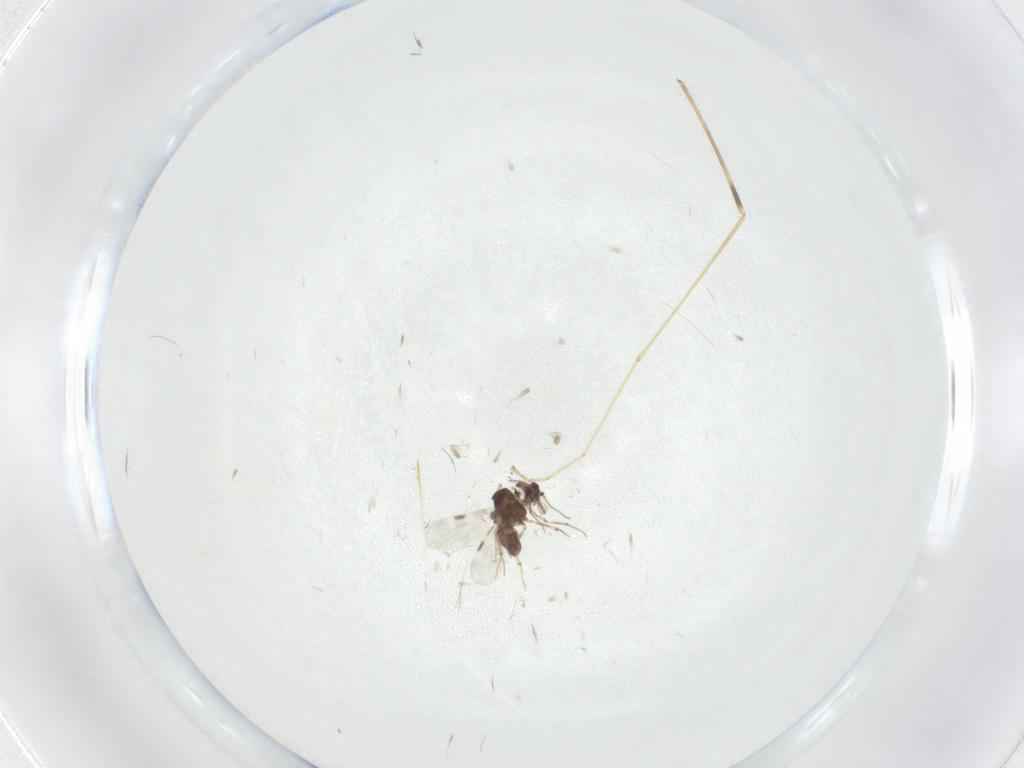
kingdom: Animalia
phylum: Arthropoda
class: Insecta
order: Diptera
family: Limoniidae
